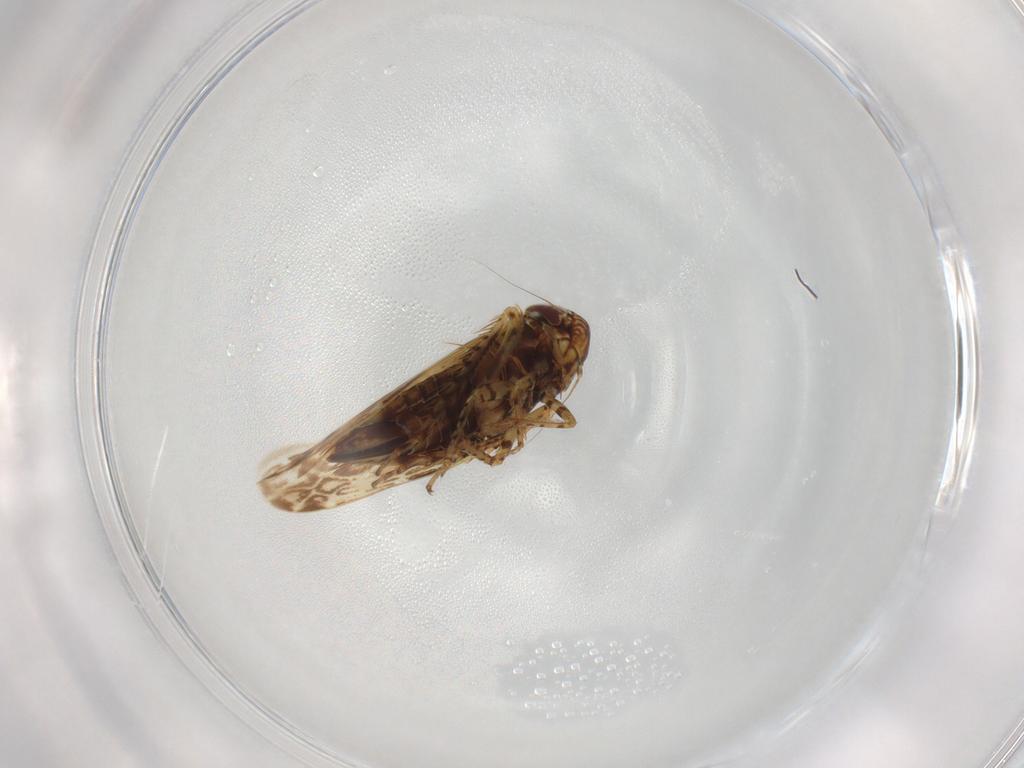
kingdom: Animalia
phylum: Arthropoda
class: Insecta
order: Hemiptera
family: Cicadellidae
